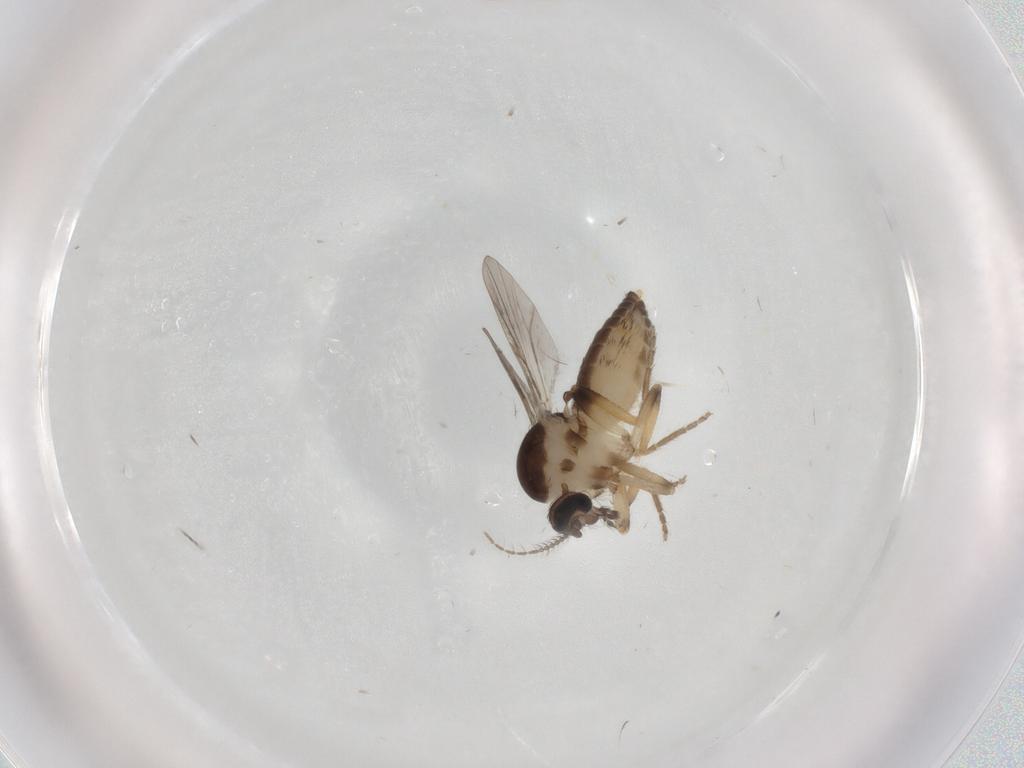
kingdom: Animalia
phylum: Arthropoda
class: Insecta
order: Diptera
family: Ceratopogonidae
